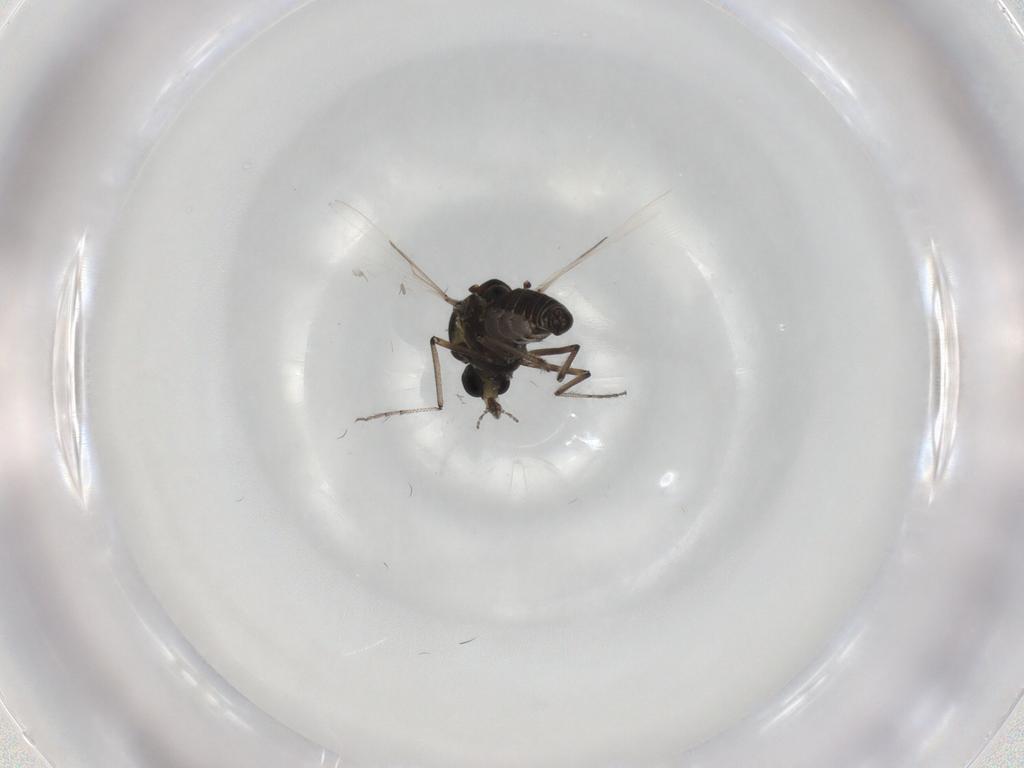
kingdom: Animalia
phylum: Arthropoda
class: Insecta
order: Diptera
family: Ceratopogonidae
